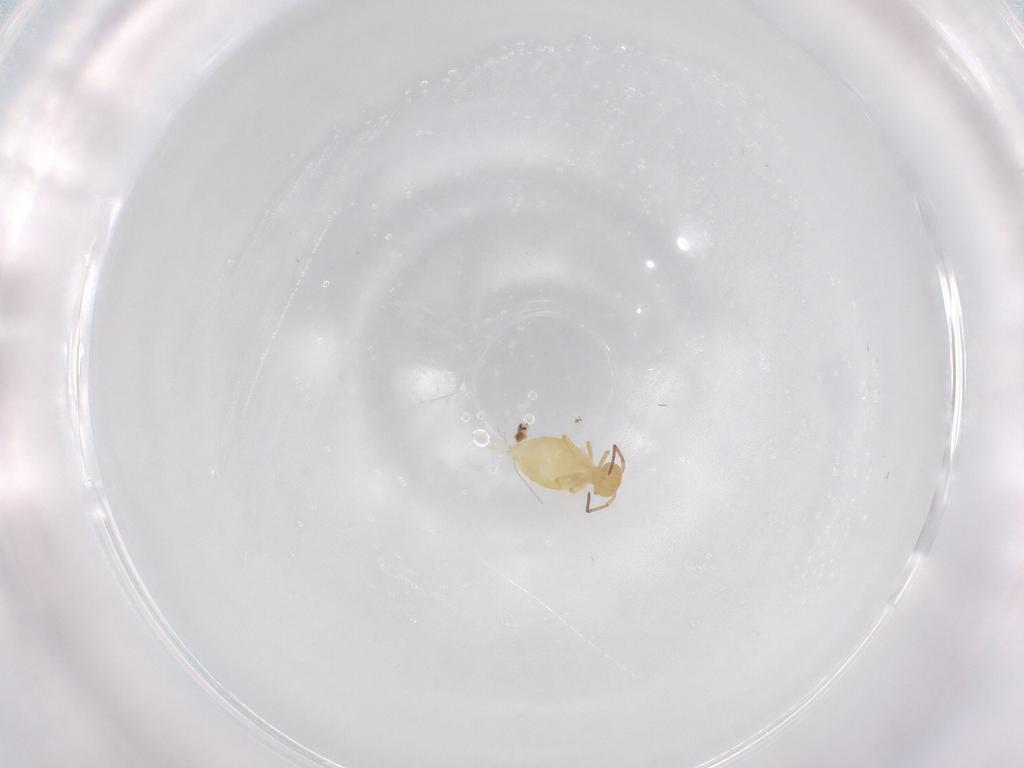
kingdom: Animalia
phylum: Arthropoda
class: Collembola
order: Symphypleona
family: Bourletiellidae
